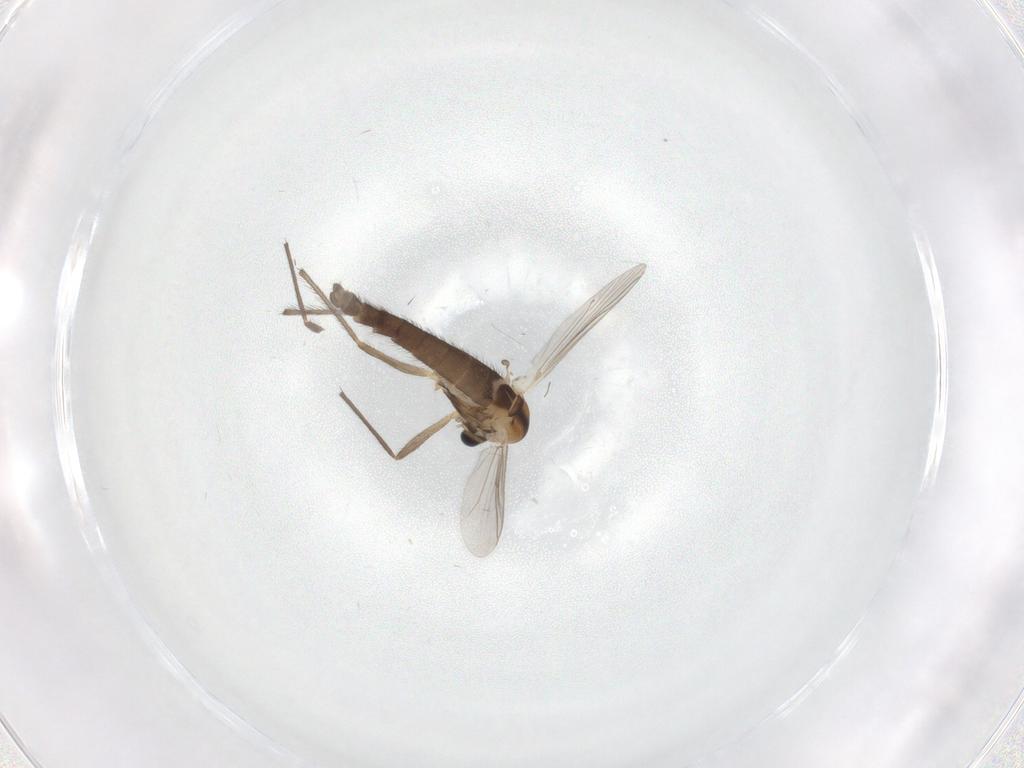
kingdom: Animalia
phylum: Arthropoda
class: Insecta
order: Diptera
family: Chironomidae
